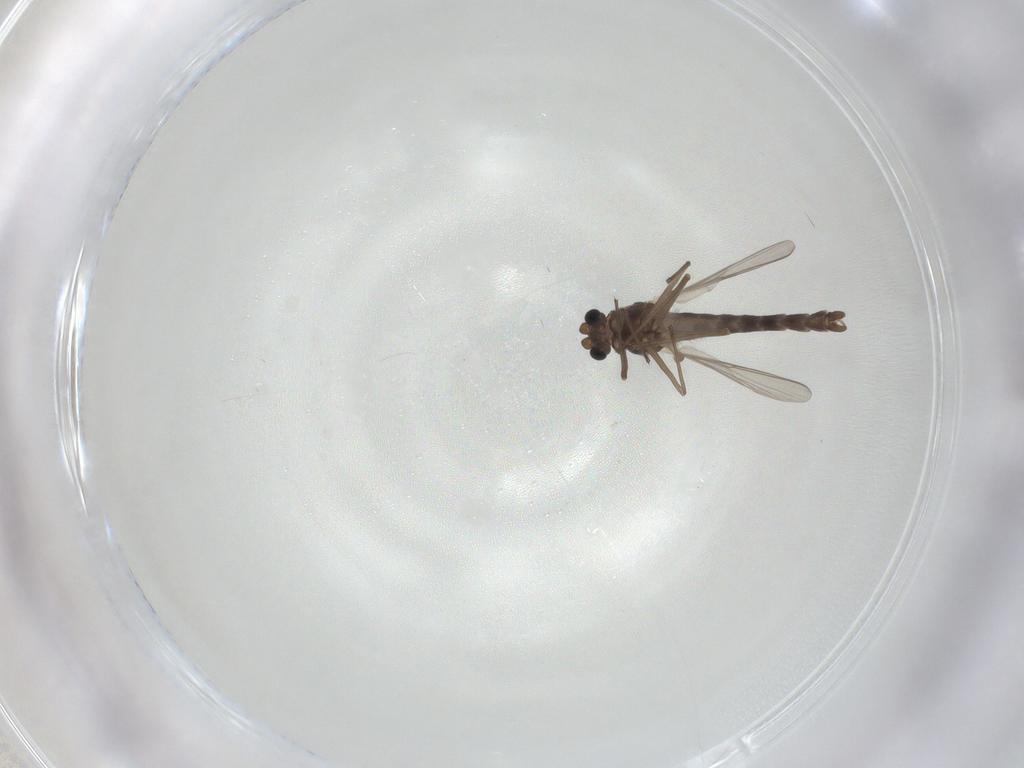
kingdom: Animalia
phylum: Arthropoda
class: Insecta
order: Diptera
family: Chironomidae
